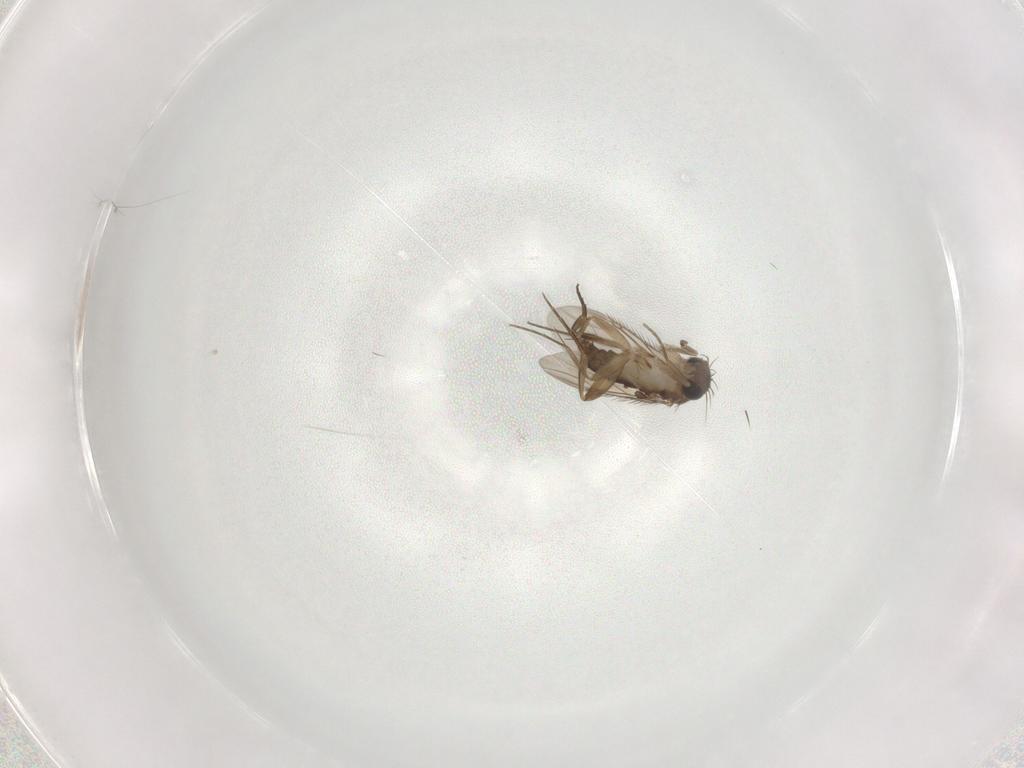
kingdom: Animalia
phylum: Arthropoda
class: Insecta
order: Diptera
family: Phoridae
